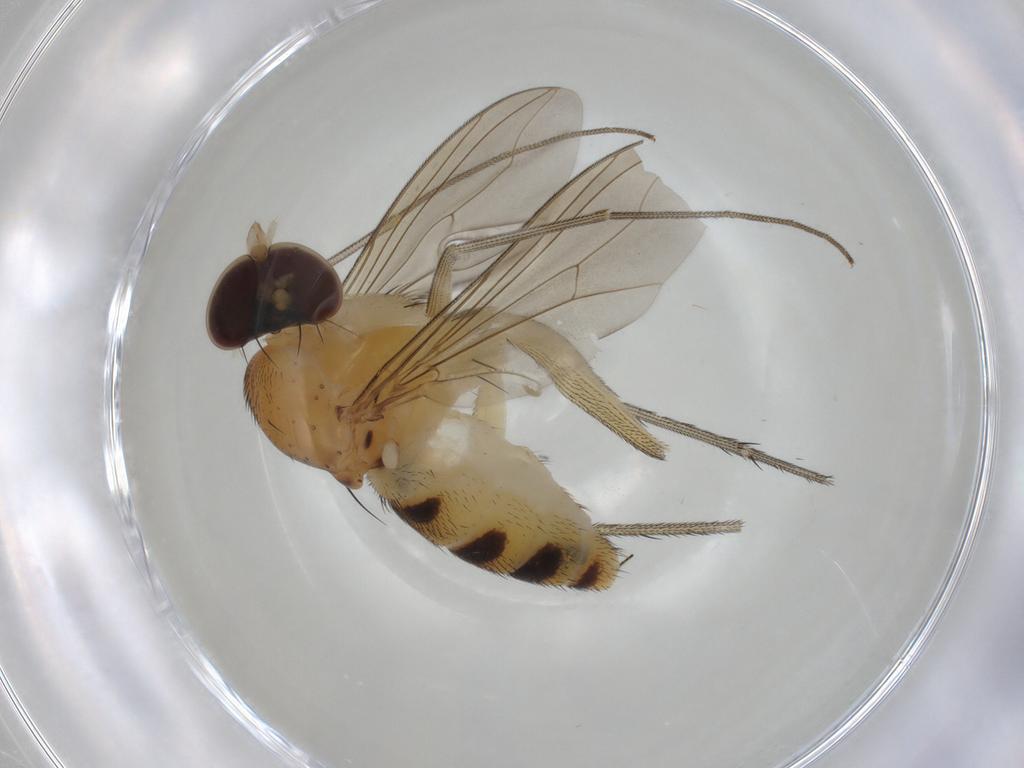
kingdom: Animalia
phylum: Arthropoda
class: Insecta
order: Diptera
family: Dolichopodidae
